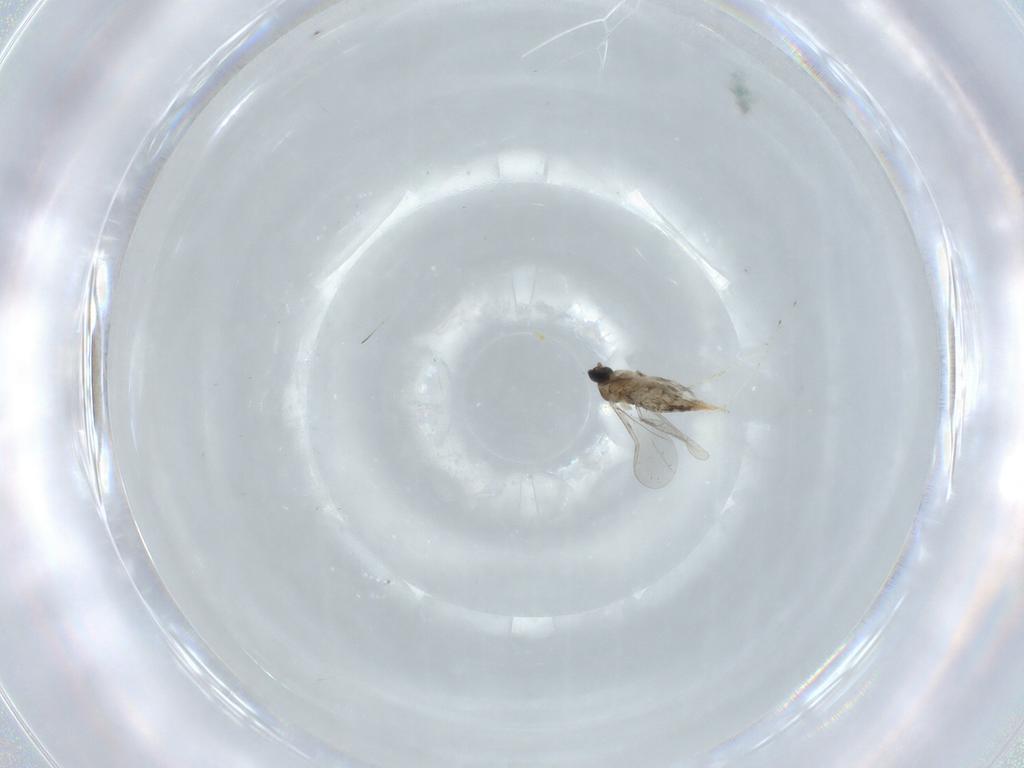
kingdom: Animalia
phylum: Arthropoda
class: Insecta
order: Diptera
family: Cecidomyiidae
